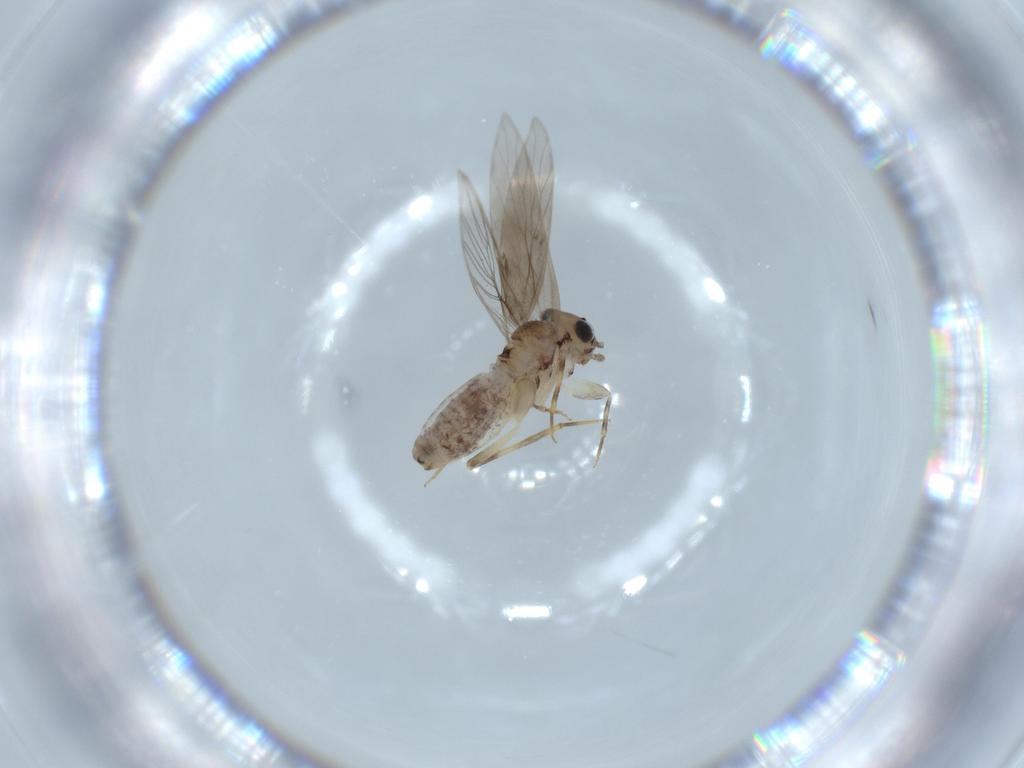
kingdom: Animalia
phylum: Arthropoda
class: Insecta
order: Psocodea
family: Lepidopsocidae
